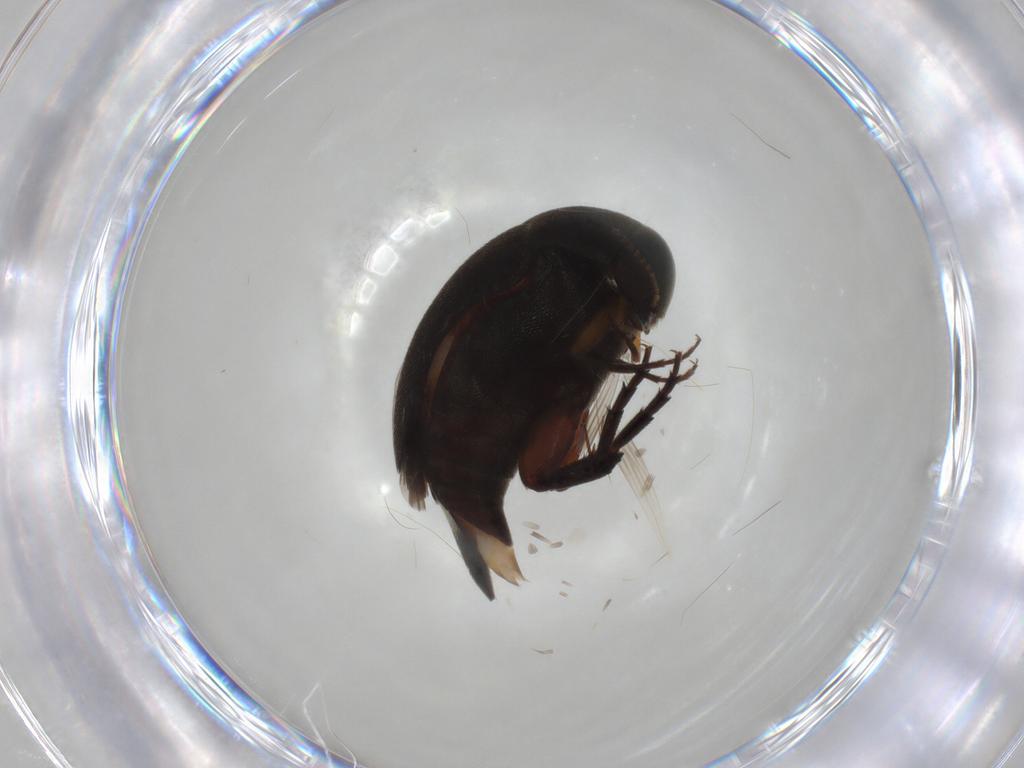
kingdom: Animalia
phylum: Arthropoda
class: Insecta
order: Coleoptera
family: Mordellidae
